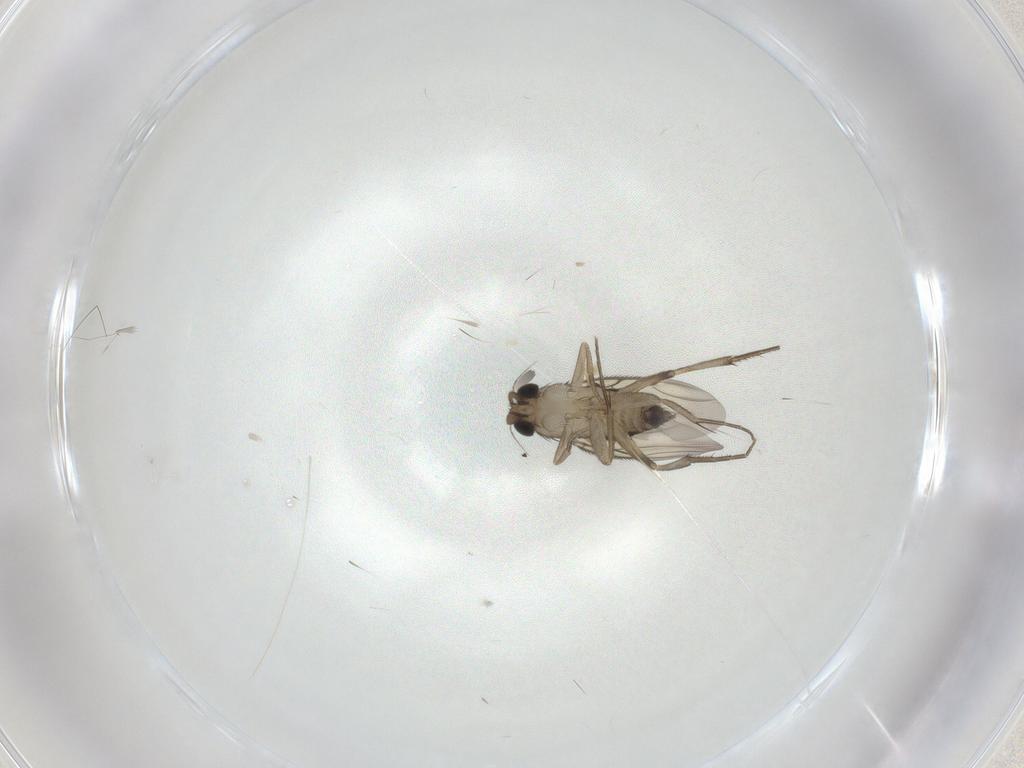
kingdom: Animalia
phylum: Arthropoda
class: Insecta
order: Diptera
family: Phoridae
